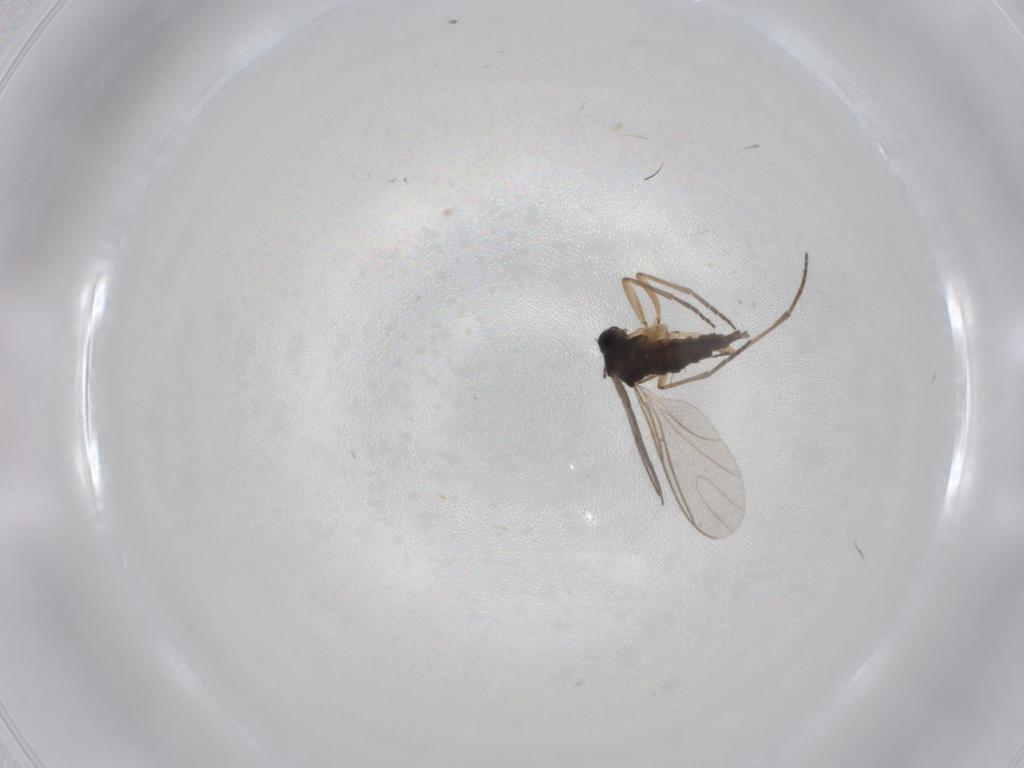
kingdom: Animalia
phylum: Arthropoda
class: Insecta
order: Diptera
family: Sciaridae
